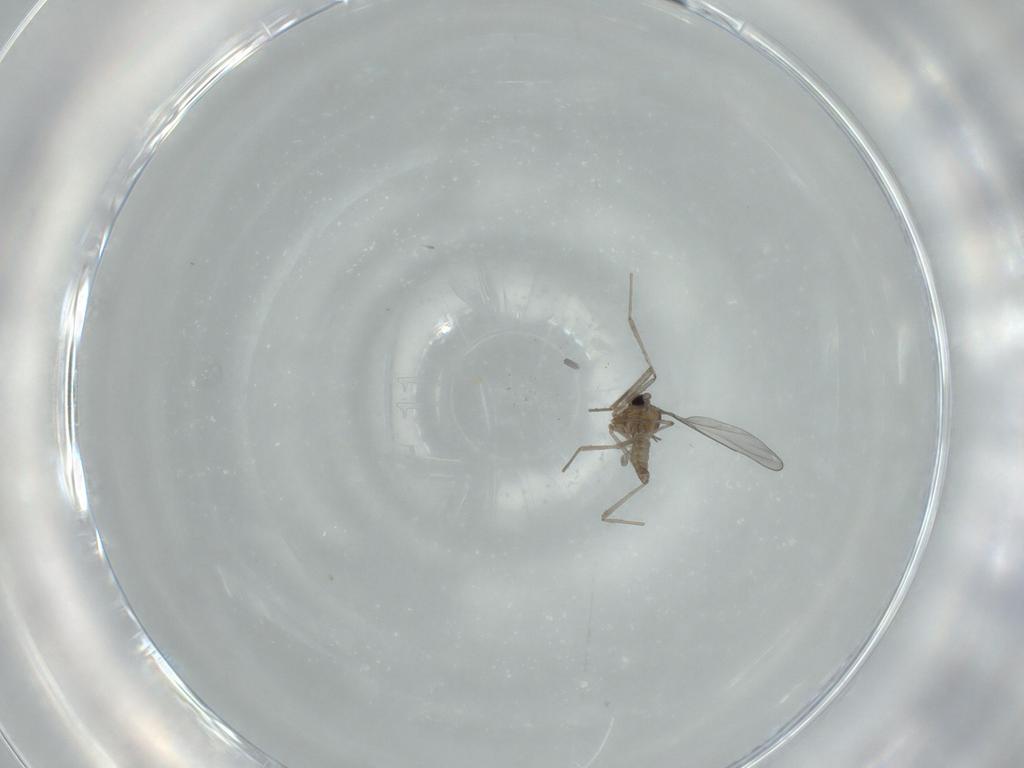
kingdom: Animalia
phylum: Arthropoda
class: Insecta
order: Diptera
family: Cecidomyiidae
